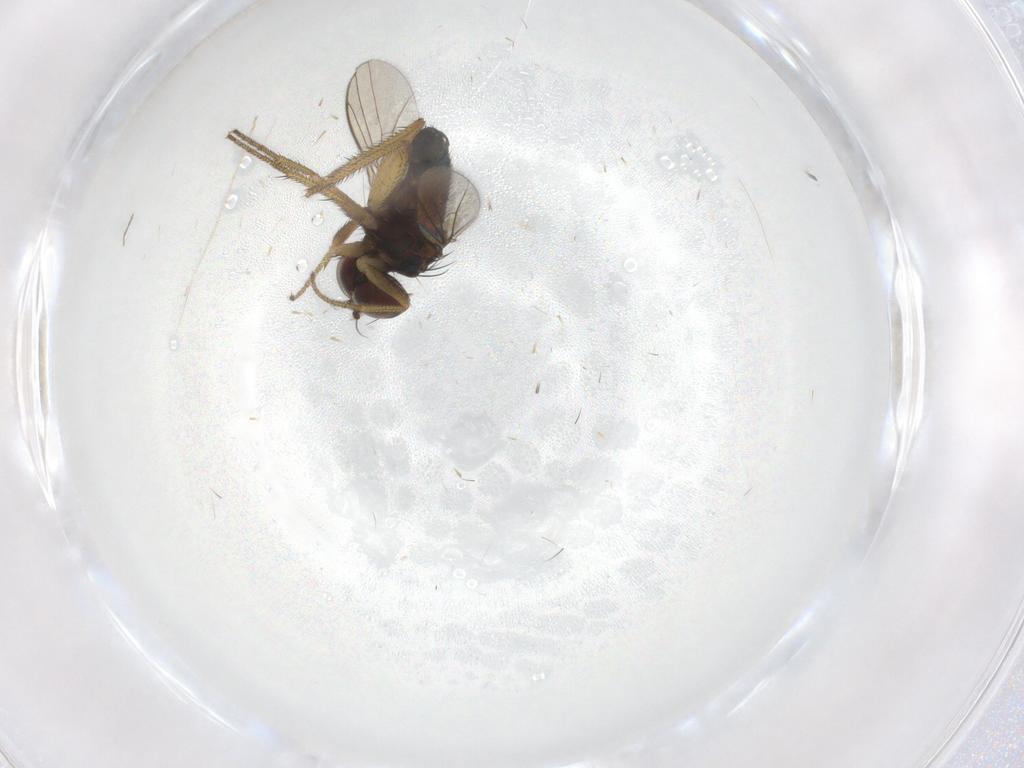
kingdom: Animalia
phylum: Arthropoda
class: Insecta
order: Diptera
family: Dolichopodidae
